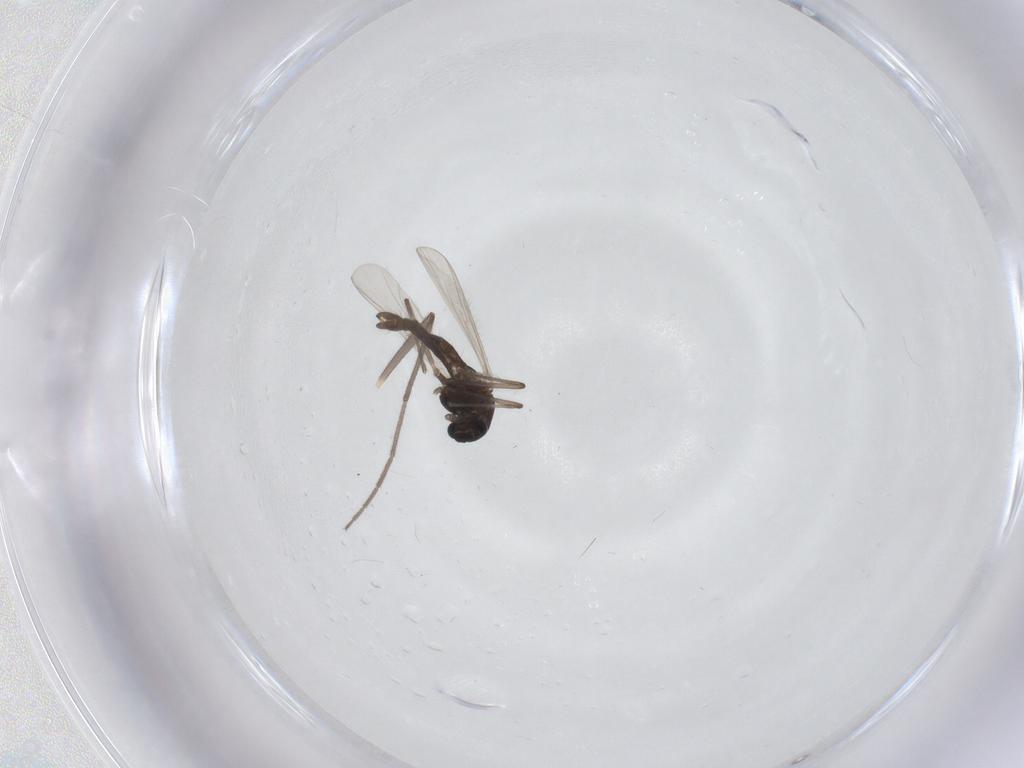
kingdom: Animalia
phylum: Arthropoda
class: Insecta
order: Diptera
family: Chironomidae
